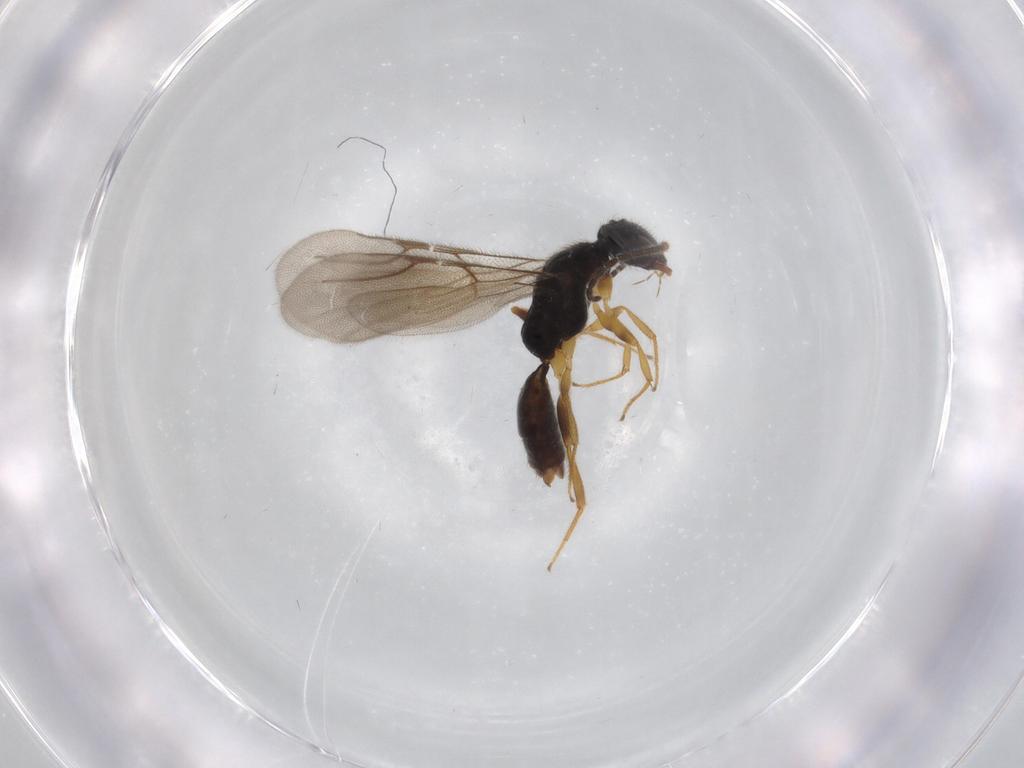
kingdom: Animalia
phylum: Arthropoda
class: Insecta
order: Hymenoptera
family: Bethylidae
